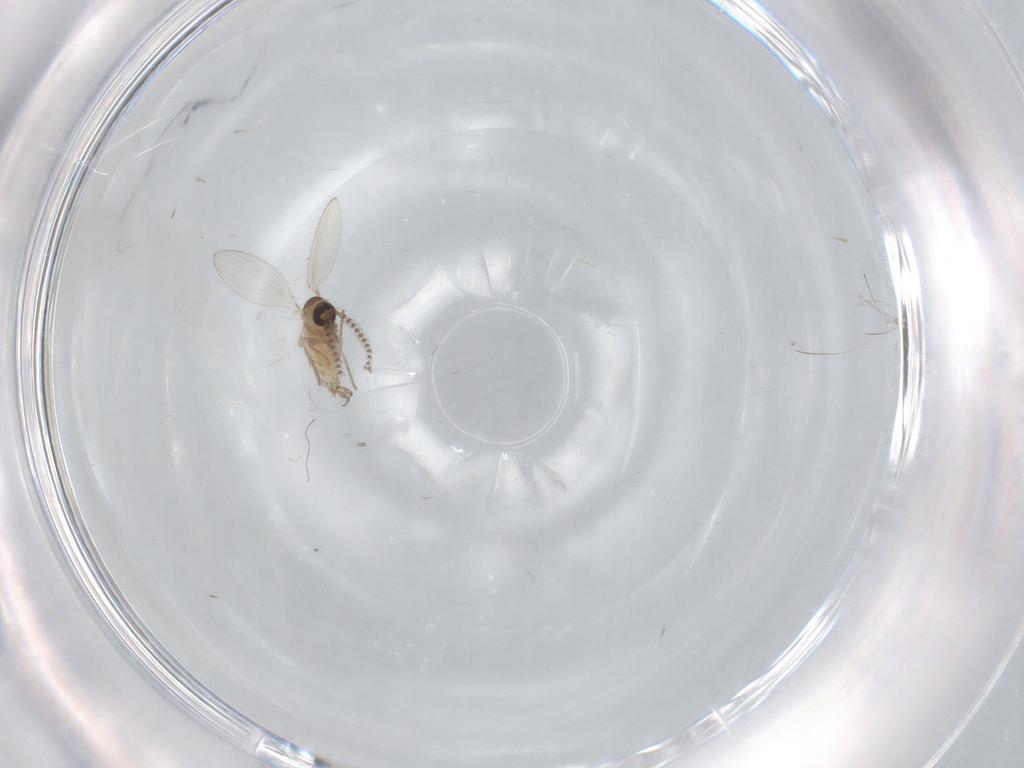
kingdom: Animalia
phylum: Arthropoda
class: Insecta
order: Diptera
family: Psychodidae
